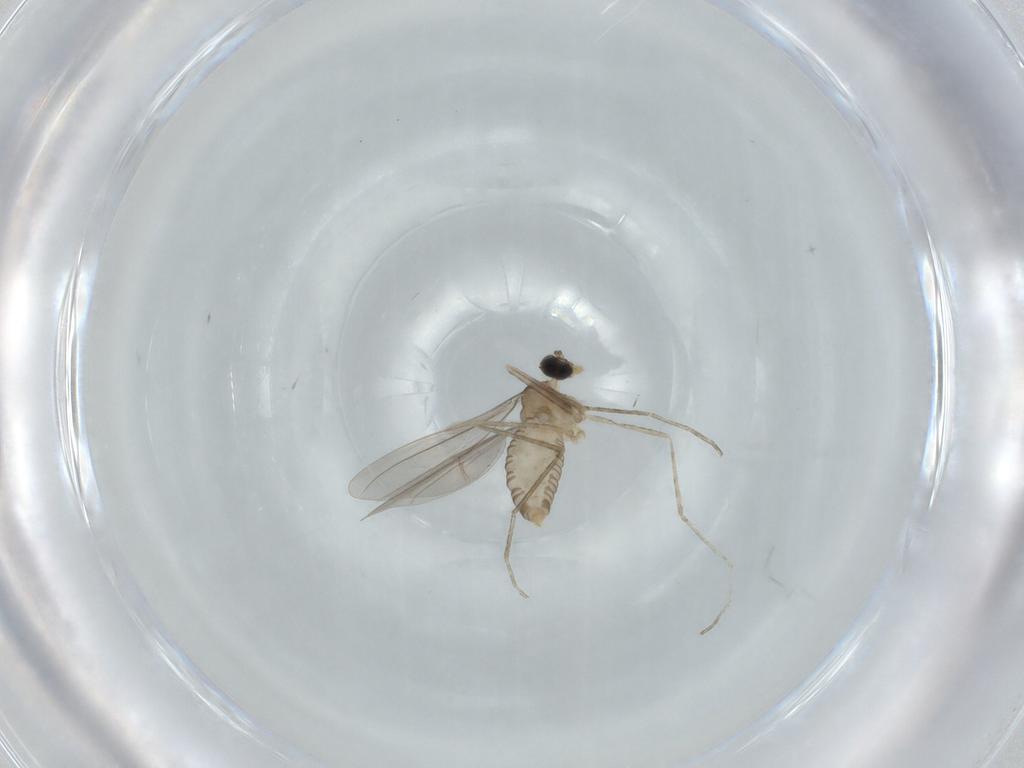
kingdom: Animalia
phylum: Arthropoda
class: Insecta
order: Diptera
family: Cecidomyiidae
